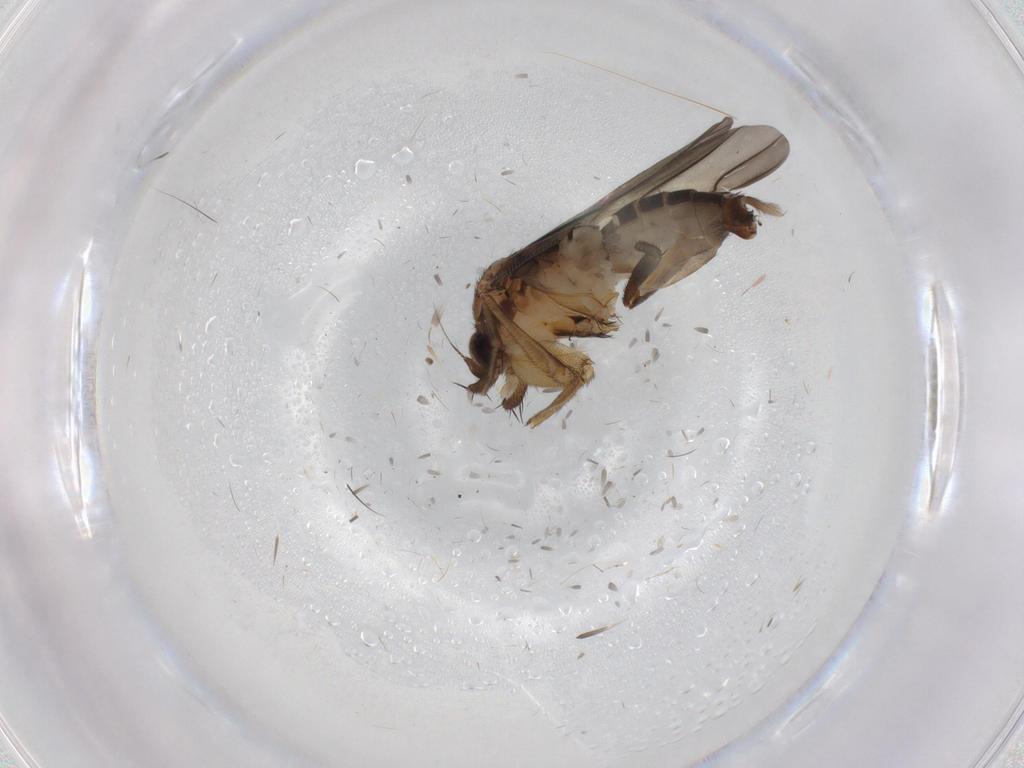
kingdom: Animalia
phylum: Arthropoda
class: Insecta
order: Diptera
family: Phoridae
